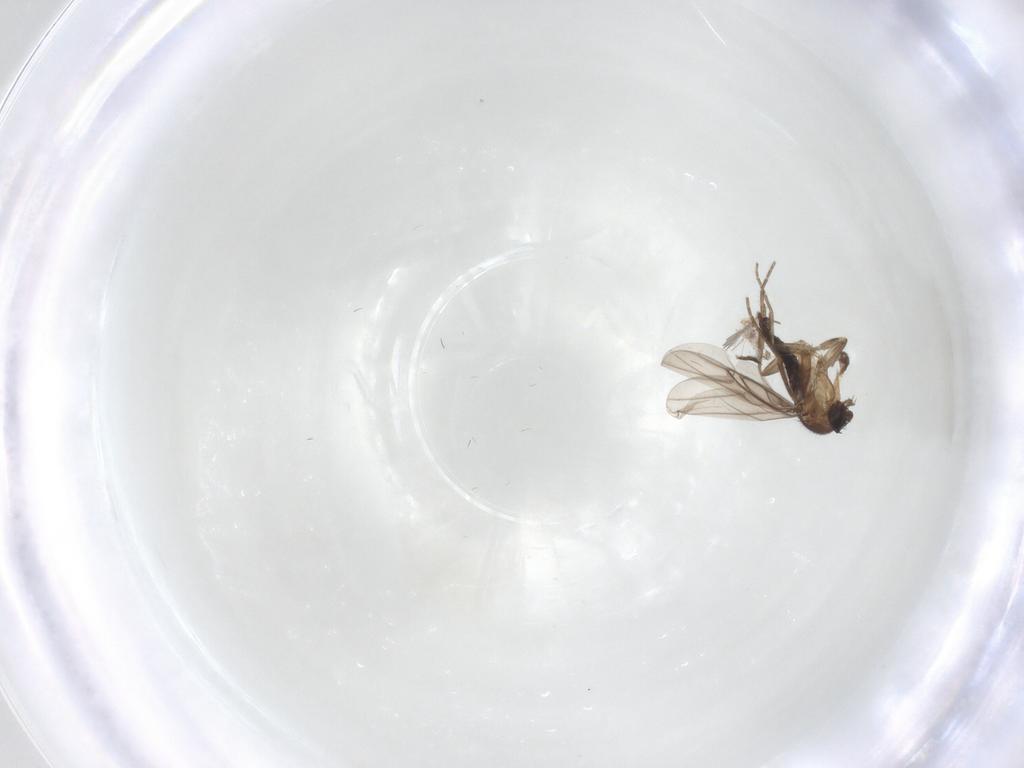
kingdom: Animalia
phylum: Arthropoda
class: Insecta
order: Diptera
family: Phoridae
